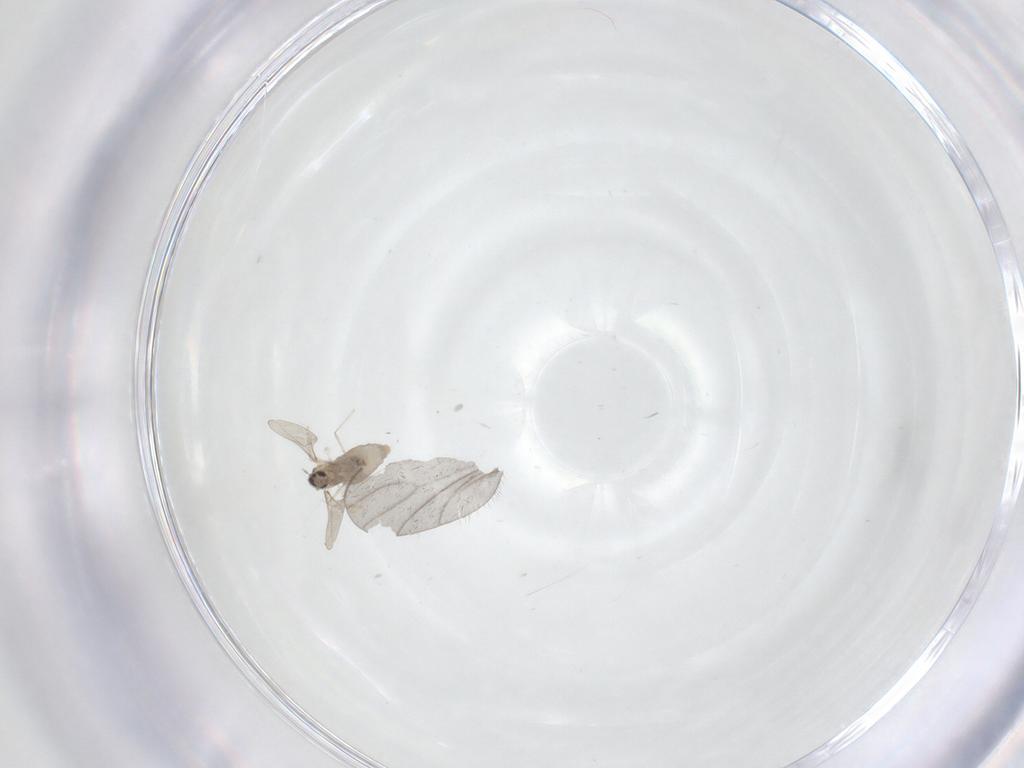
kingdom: Animalia
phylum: Arthropoda
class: Insecta
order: Diptera
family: Cecidomyiidae
